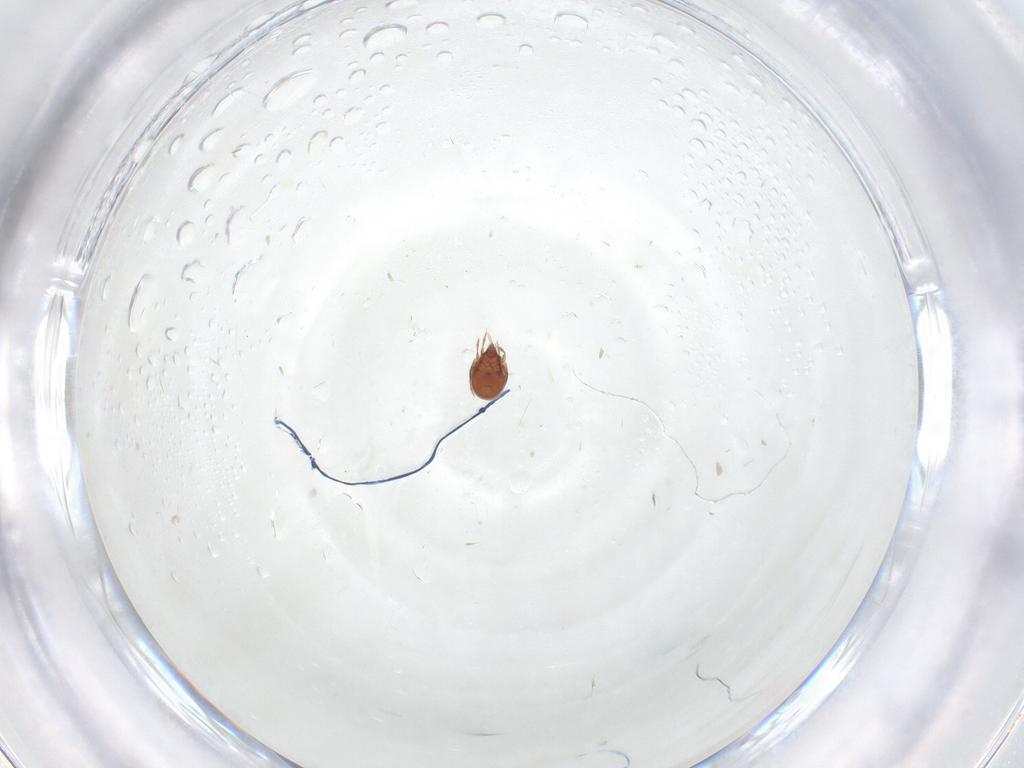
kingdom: Animalia
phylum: Arthropoda
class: Arachnida
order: Sarcoptiformes
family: Scheloribatidae
